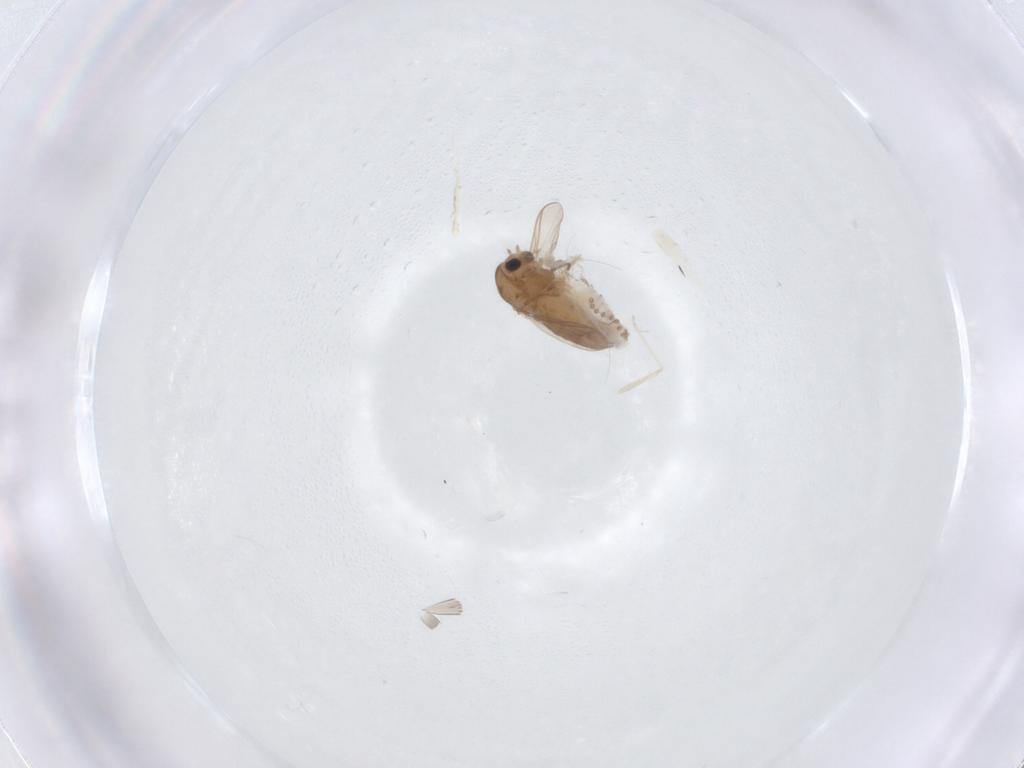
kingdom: Animalia
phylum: Arthropoda
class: Insecta
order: Diptera
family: Chironomidae
